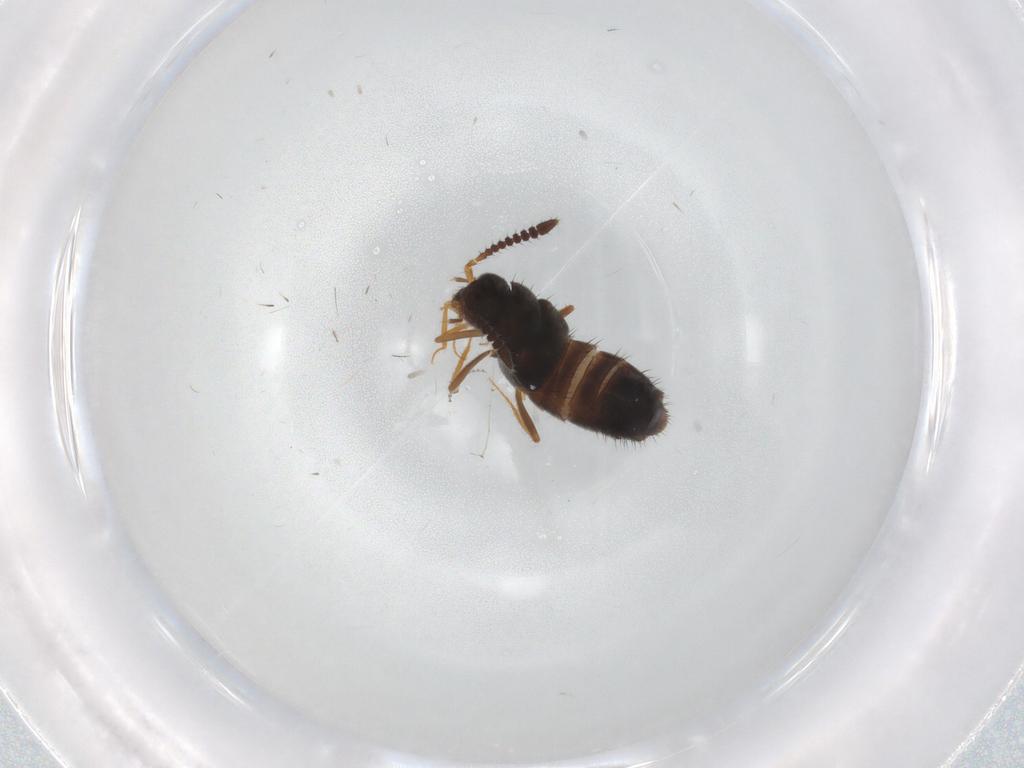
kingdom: Animalia
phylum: Arthropoda
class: Insecta
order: Coleoptera
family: Staphylinidae
